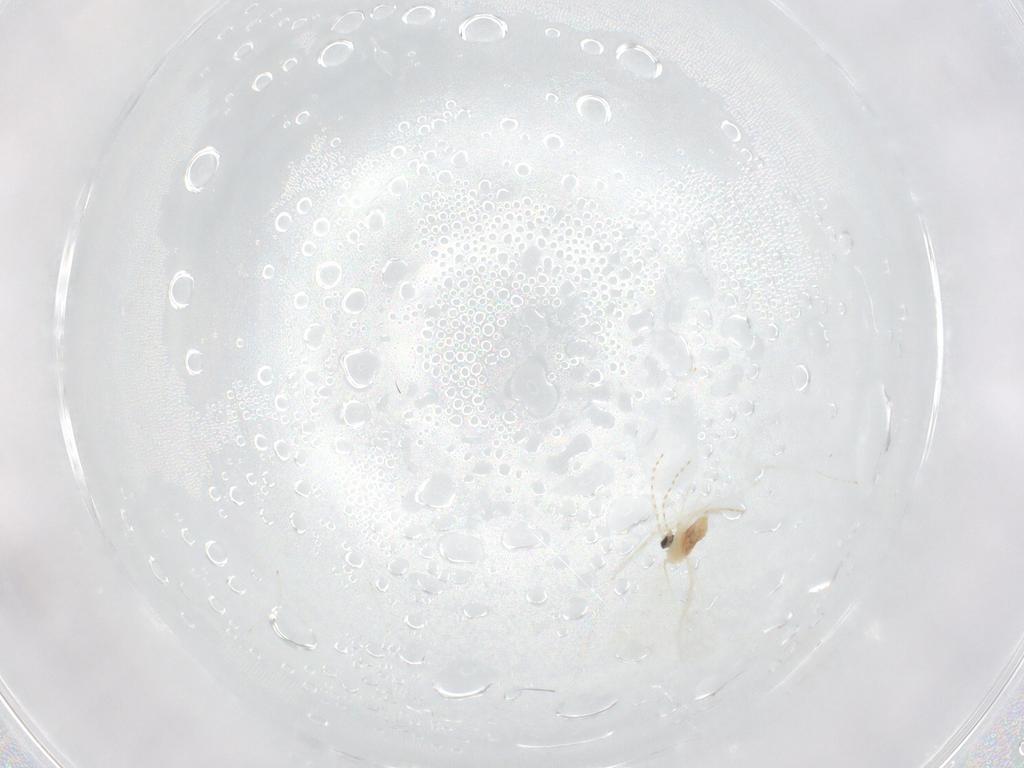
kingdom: Animalia
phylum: Arthropoda
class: Insecta
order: Diptera
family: Cecidomyiidae
